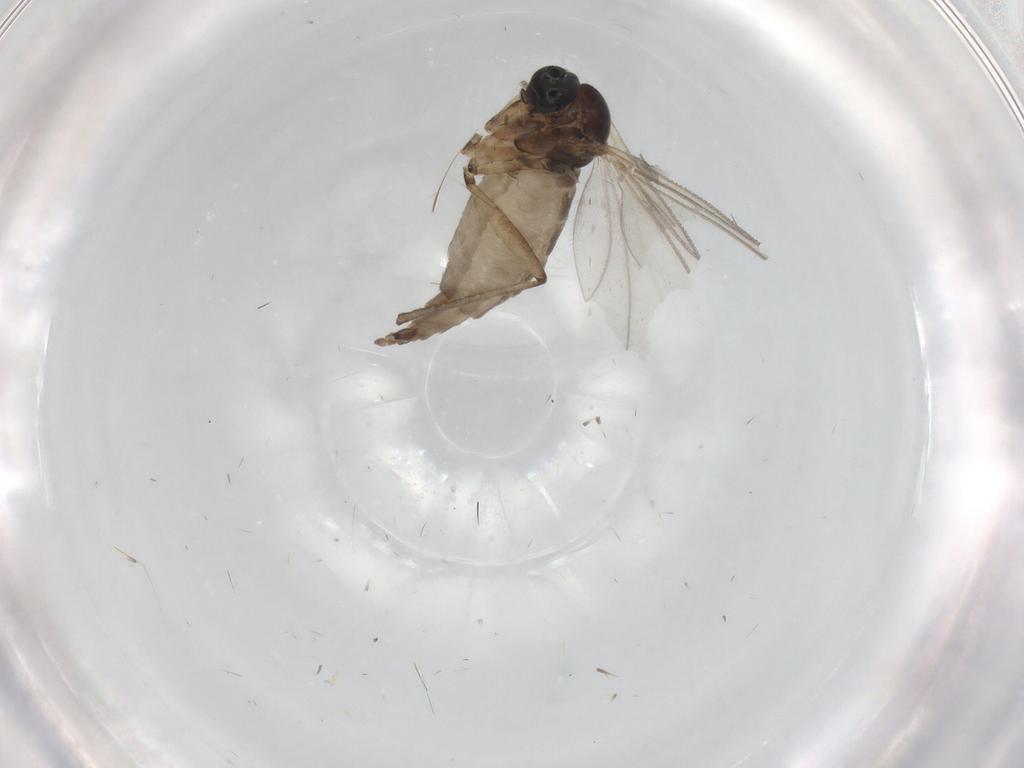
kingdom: Animalia
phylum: Arthropoda
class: Insecta
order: Diptera
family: Sciaridae
